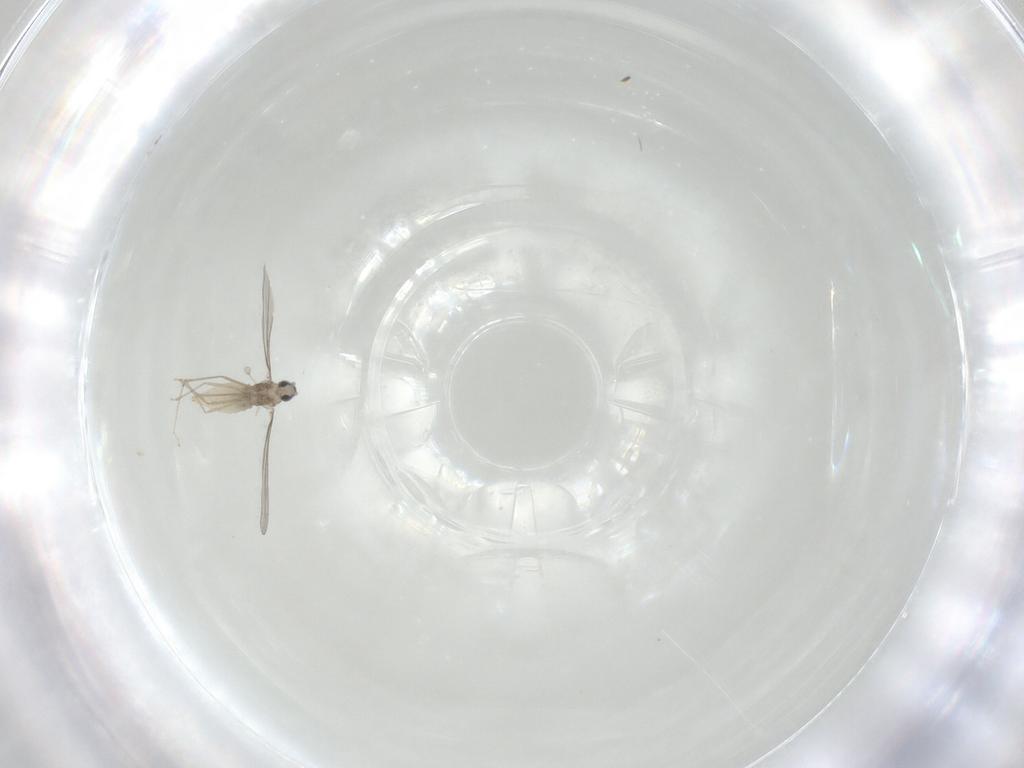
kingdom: Animalia
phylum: Arthropoda
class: Insecta
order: Diptera
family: Cecidomyiidae
